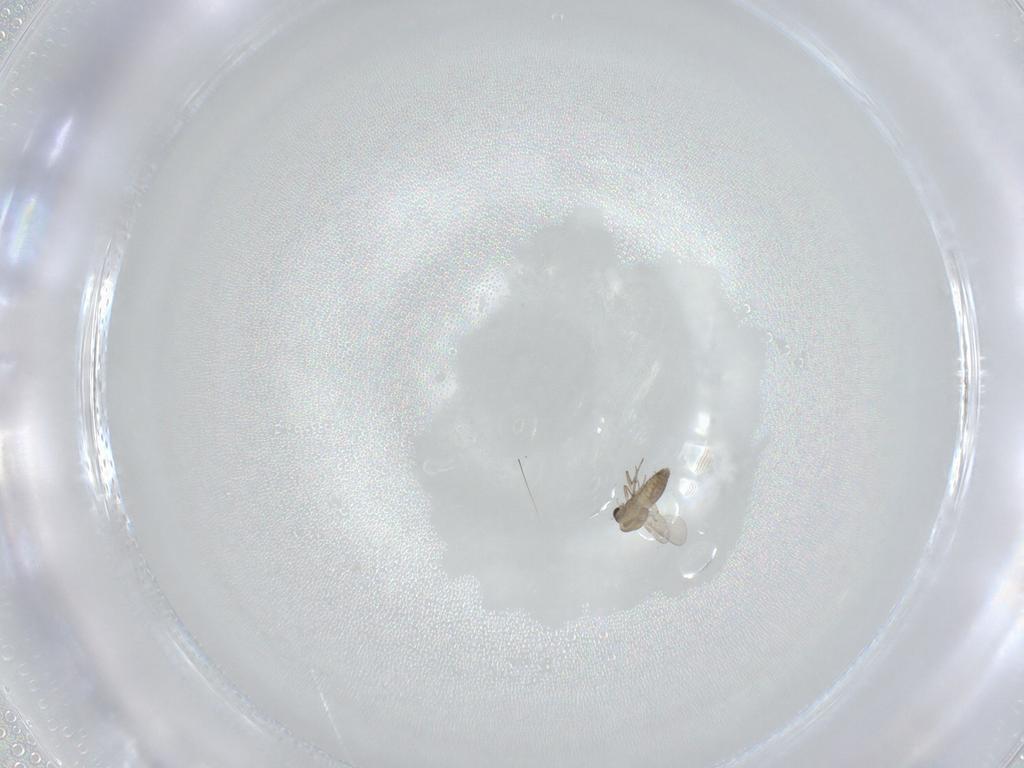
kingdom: Animalia
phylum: Arthropoda
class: Insecta
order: Diptera
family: Chironomidae
